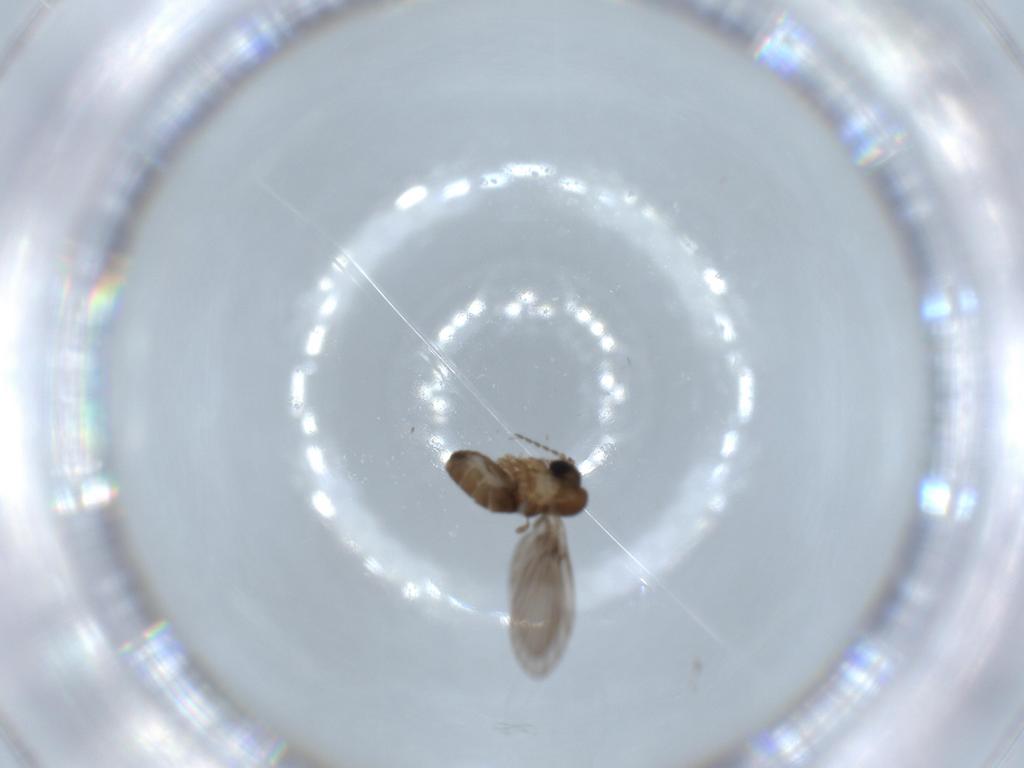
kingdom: Animalia
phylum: Arthropoda
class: Insecta
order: Diptera
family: Psychodidae
